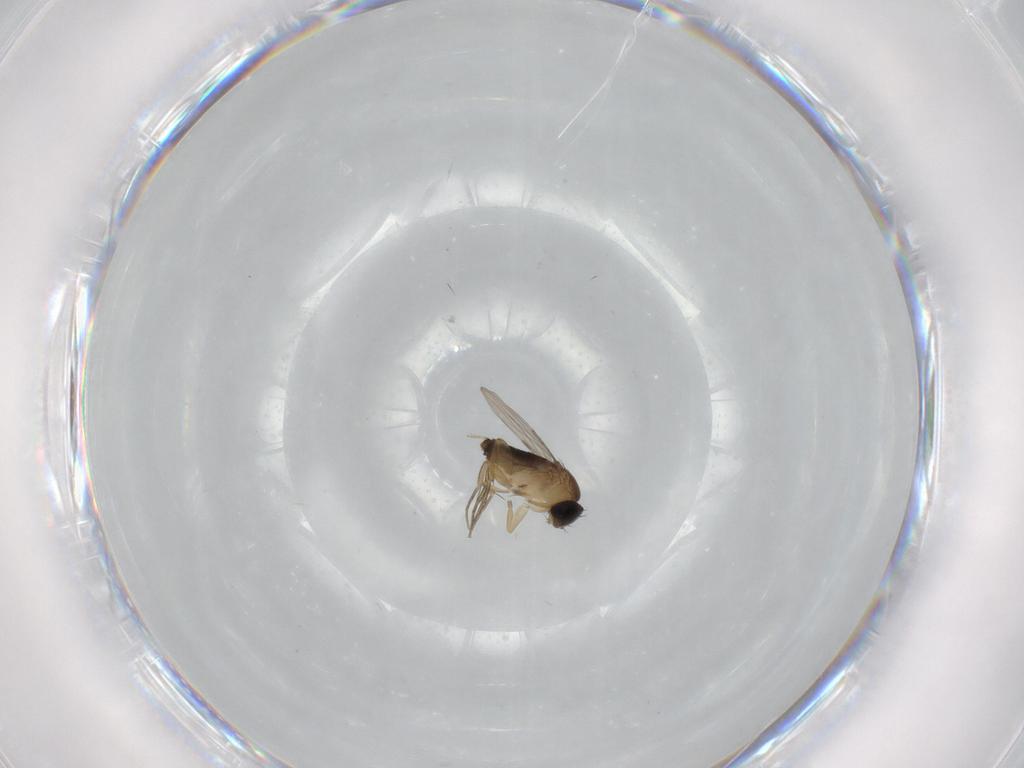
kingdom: Animalia
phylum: Arthropoda
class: Insecta
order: Diptera
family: Phoridae
